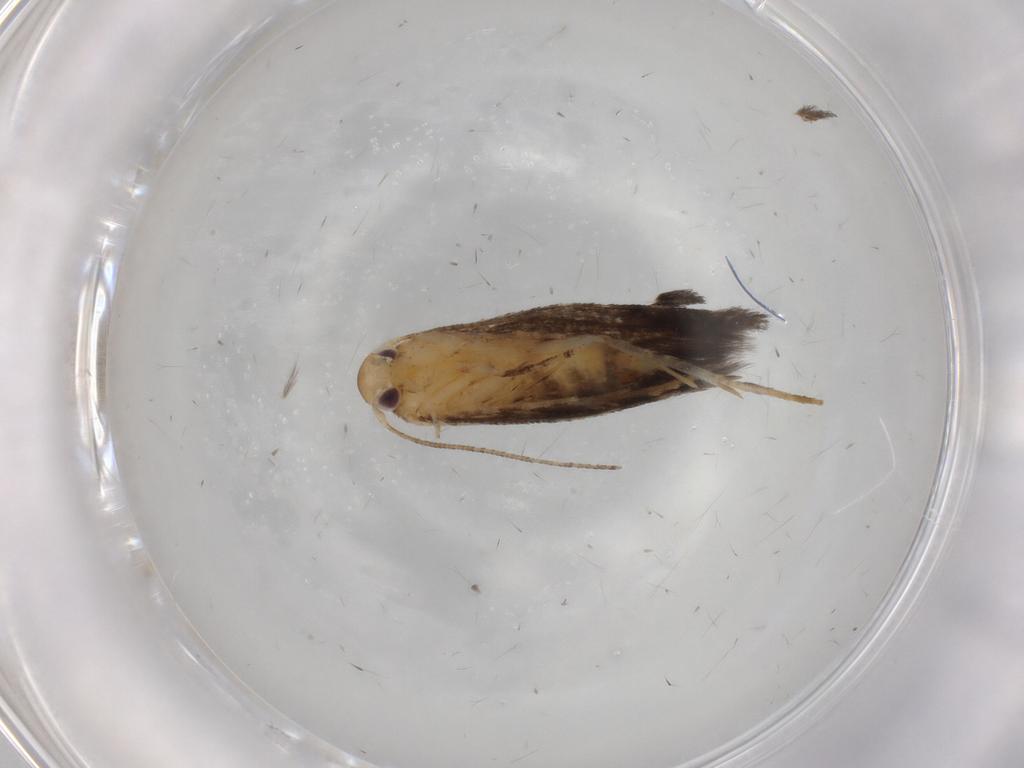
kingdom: Animalia
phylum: Arthropoda
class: Insecta
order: Lepidoptera
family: Momphidae
